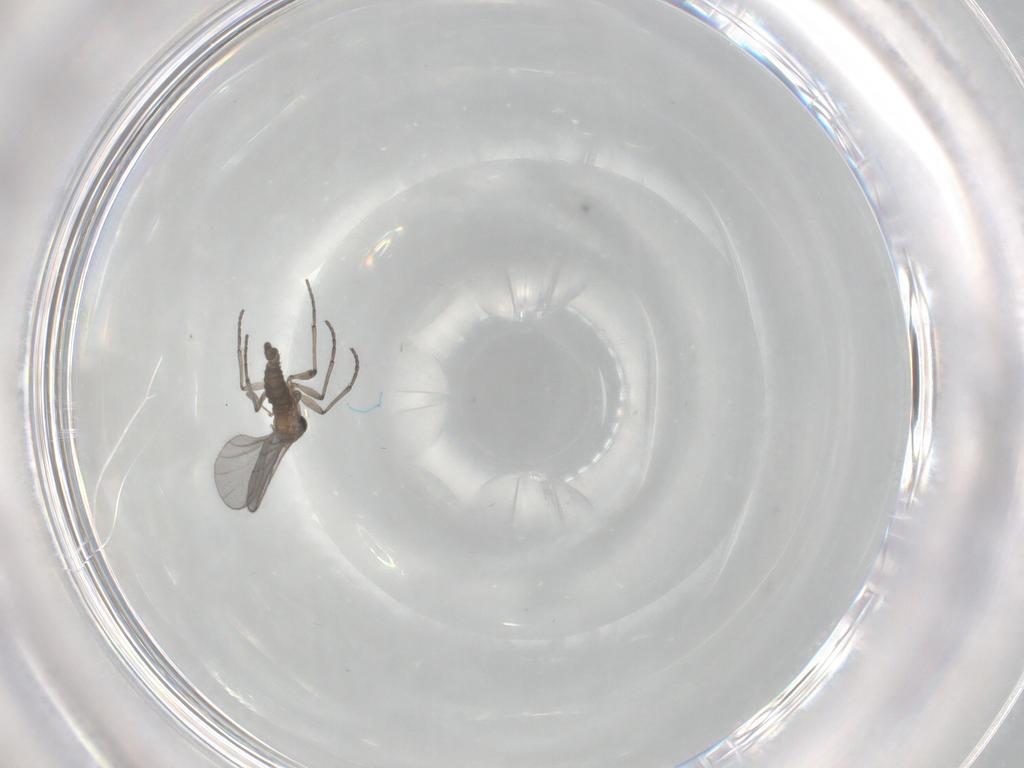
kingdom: Animalia
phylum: Arthropoda
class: Insecta
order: Diptera
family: Sciaridae
